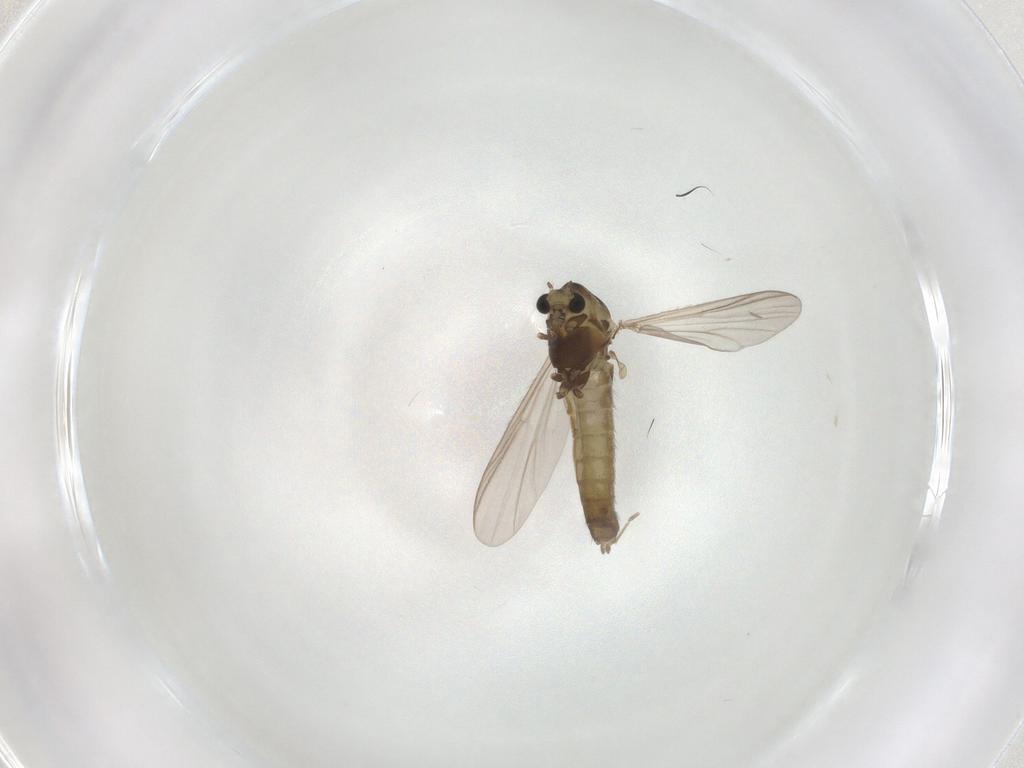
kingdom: Animalia
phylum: Arthropoda
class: Insecta
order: Diptera
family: Chironomidae
